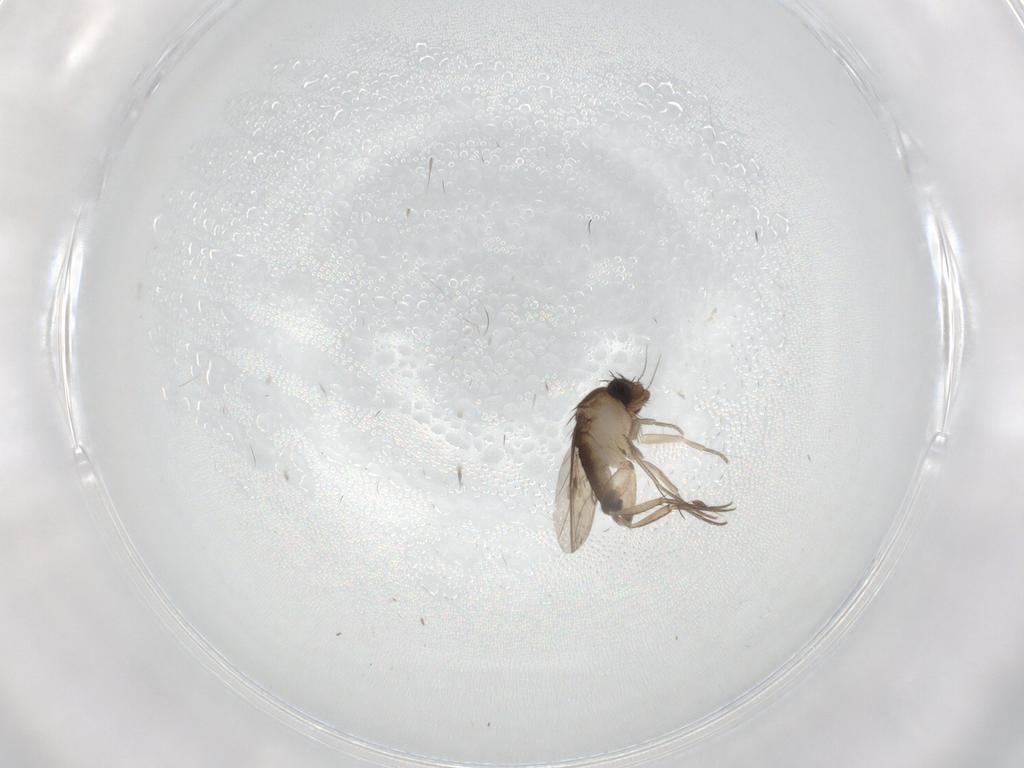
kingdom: Animalia
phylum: Arthropoda
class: Insecta
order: Diptera
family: Phoridae
